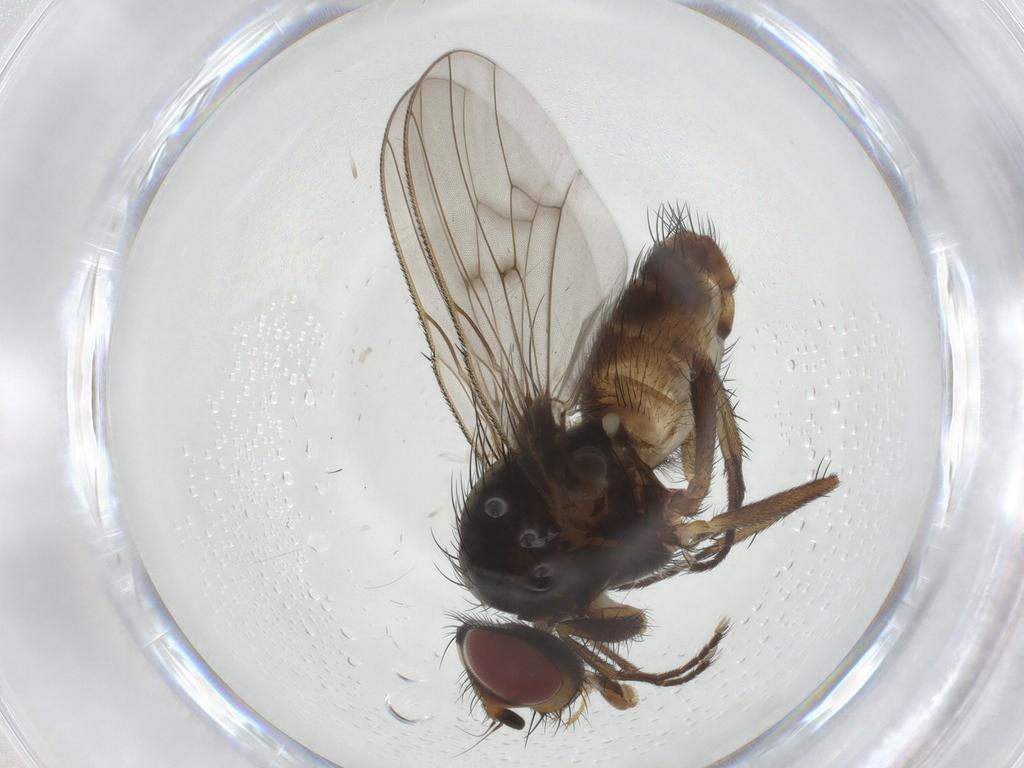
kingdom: Animalia
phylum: Arthropoda
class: Insecta
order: Diptera
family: Anthomyiidae
